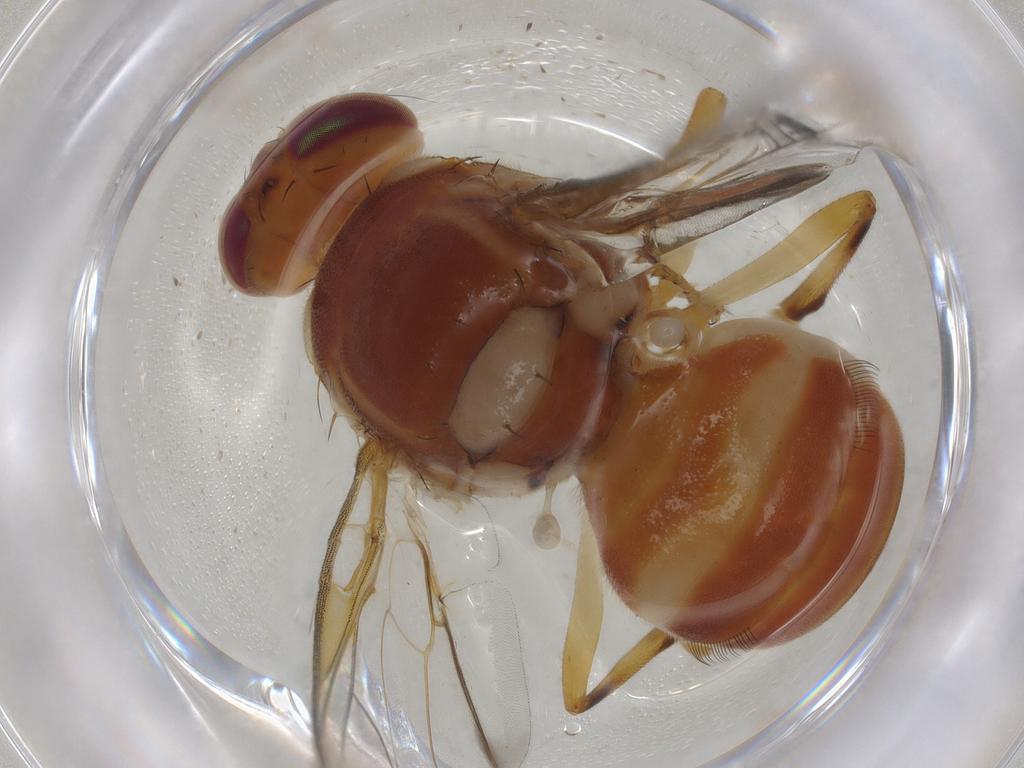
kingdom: Animalia
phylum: Arthropoda
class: Insecta
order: Diptera
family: Tephritidae
